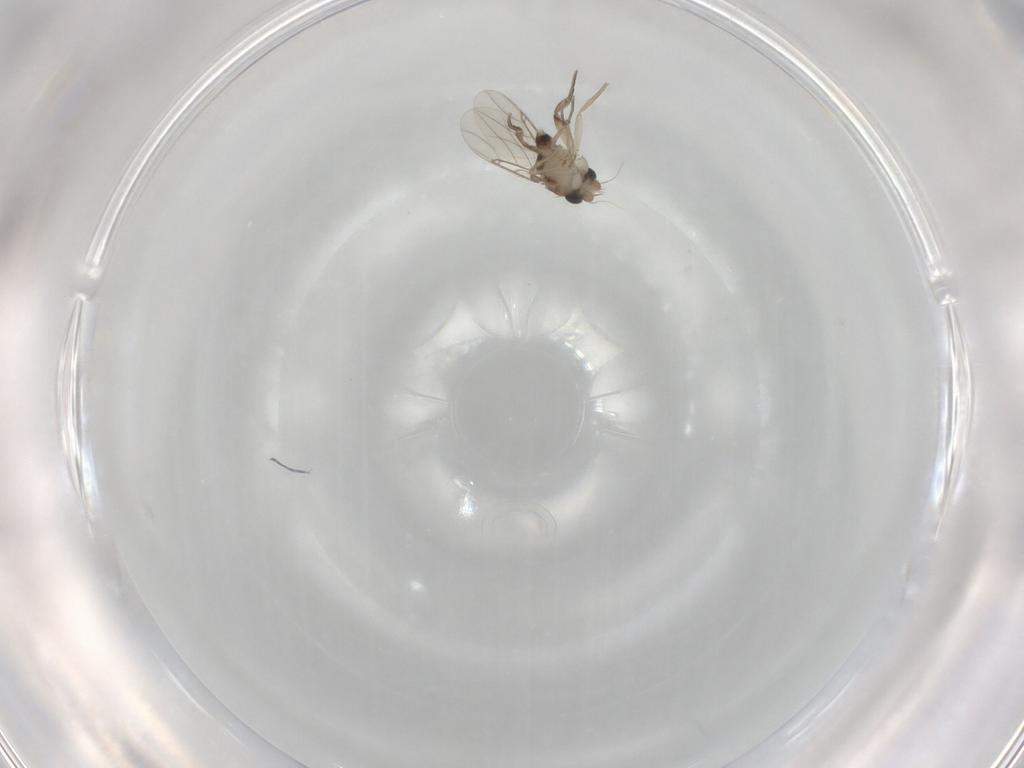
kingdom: Animalia
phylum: Arthropoda
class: Insecta
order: Diptera
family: Phoridae
